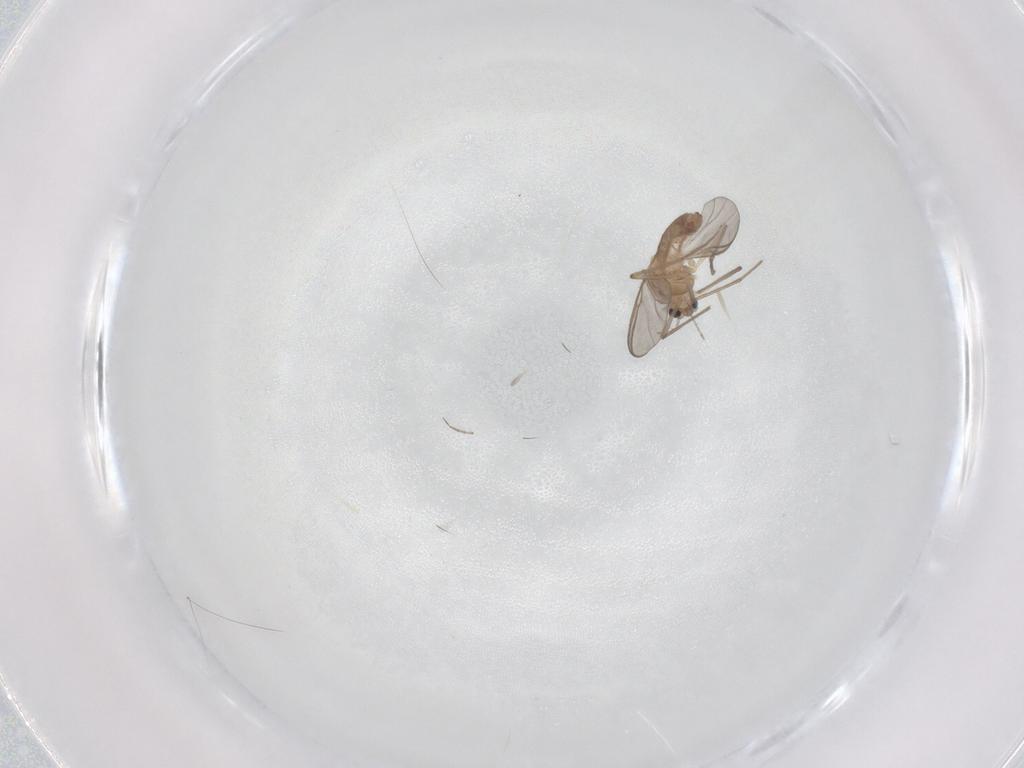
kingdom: Animalia
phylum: Arthropoda
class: Insecta
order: Diptera
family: Chironomidae
